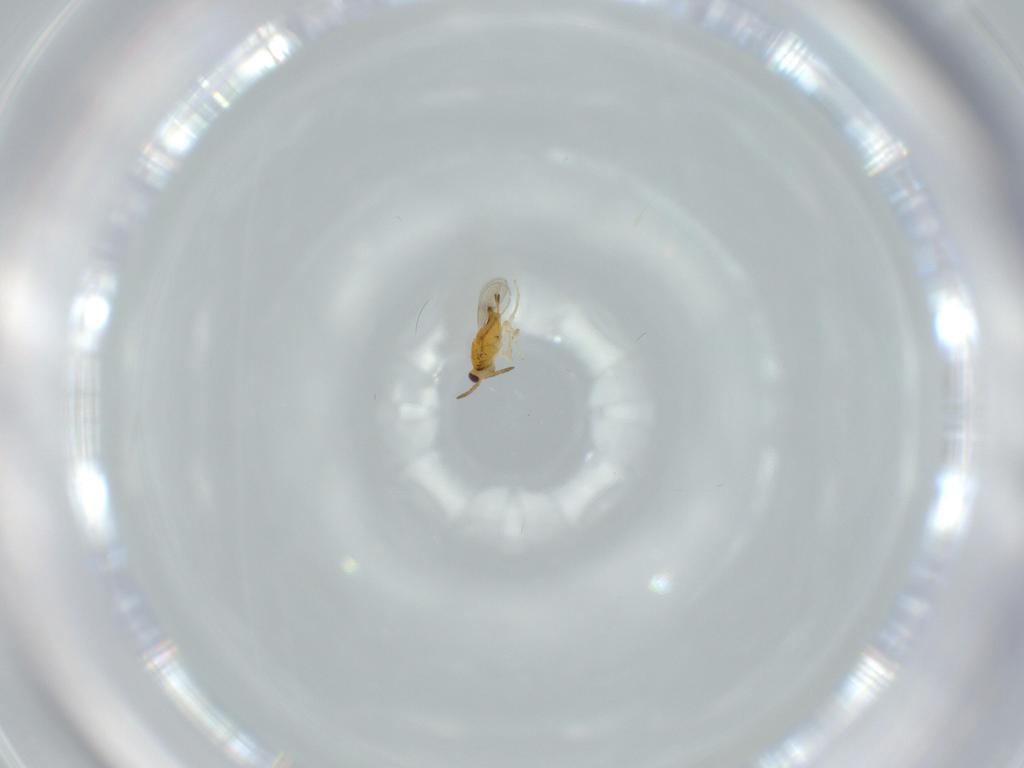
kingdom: Animalia
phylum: Arthropoda
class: Insecta
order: Hymenoptera
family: Aphelinidae
